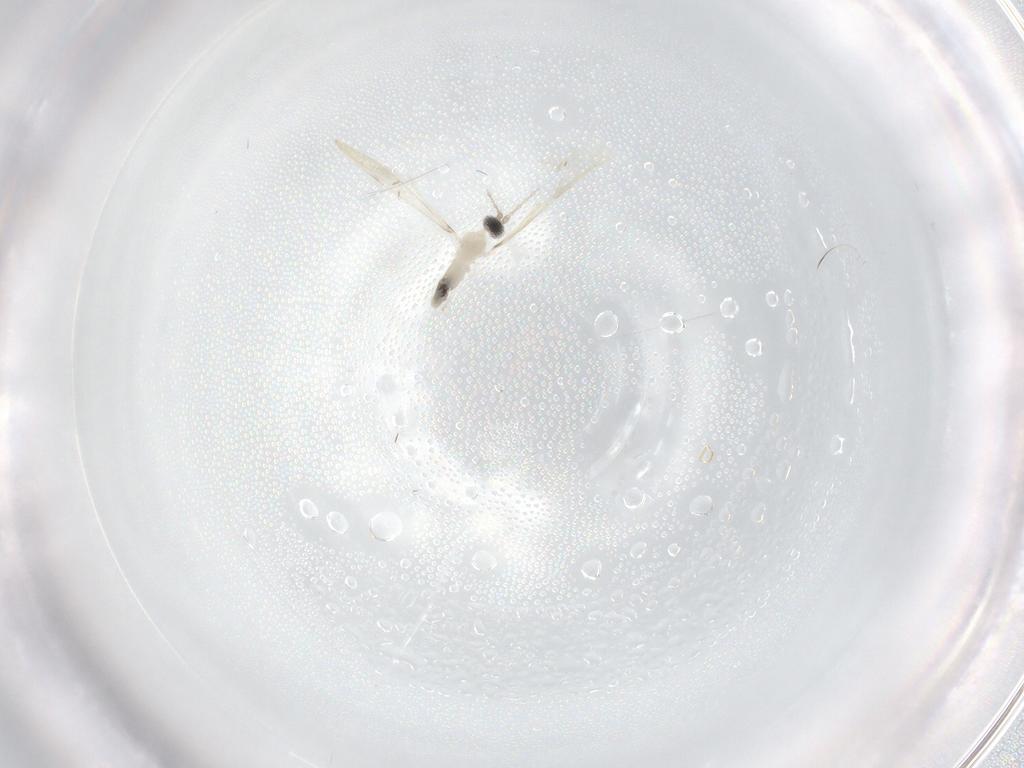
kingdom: Animalia
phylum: Arthropoda
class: Insecta
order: Diptera
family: Cecidomyiidae
